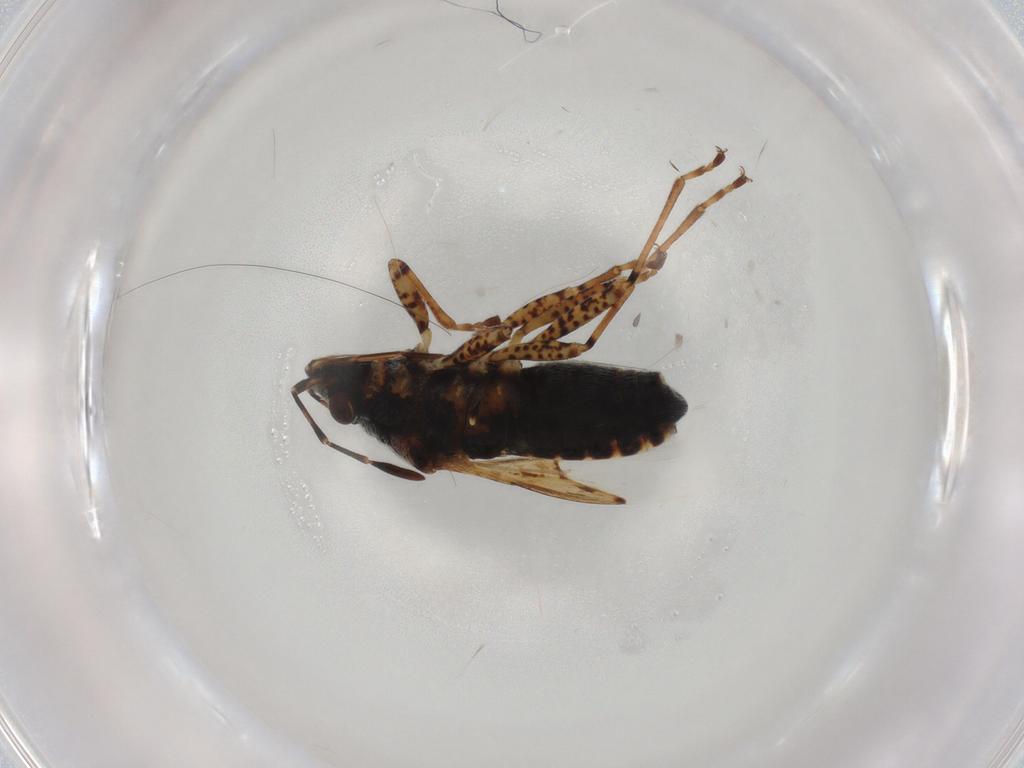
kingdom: Animalia
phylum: Arthropoda
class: Insecta
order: Hemiptera
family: Lygaeidae
